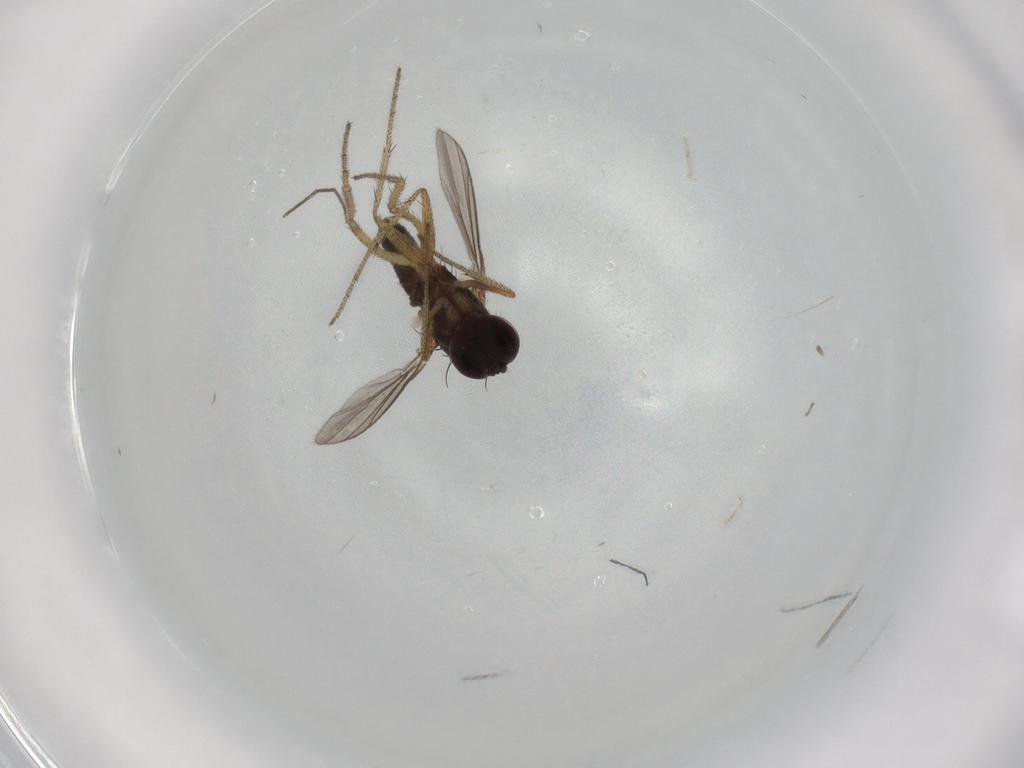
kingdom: Animalia
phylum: Arthropoda
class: Insecta
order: Diptera
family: Dolichopodidae
